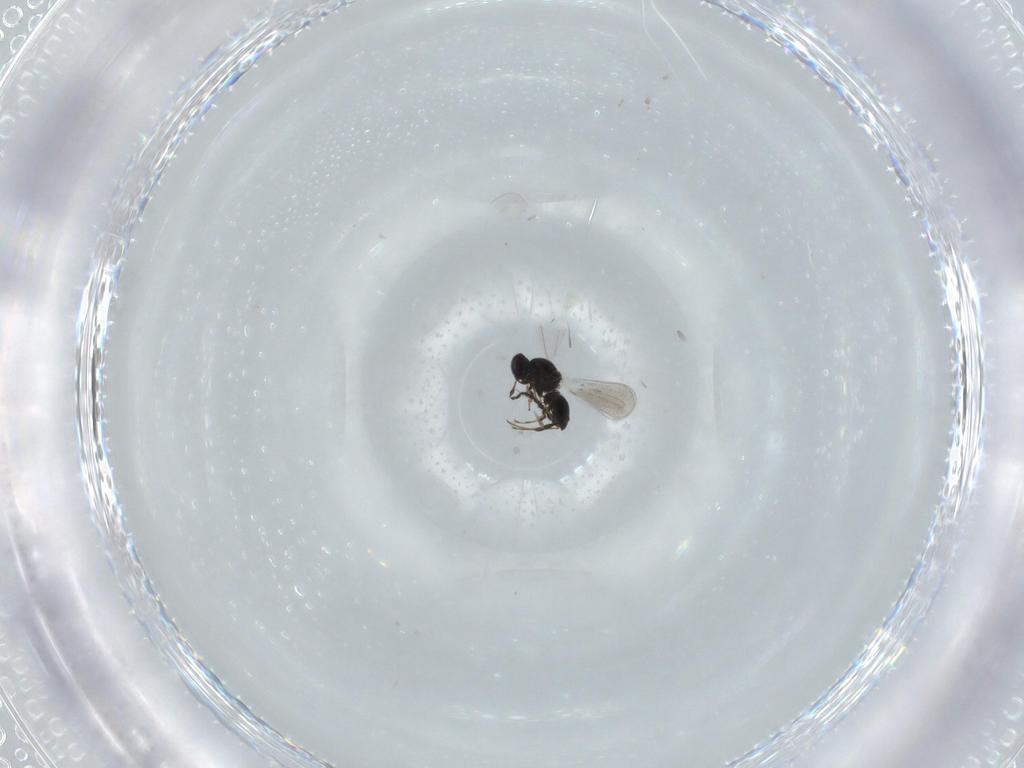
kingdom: Animalia
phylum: Arthropoda
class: Insecta
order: Hymenoptera
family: Platygastridae
